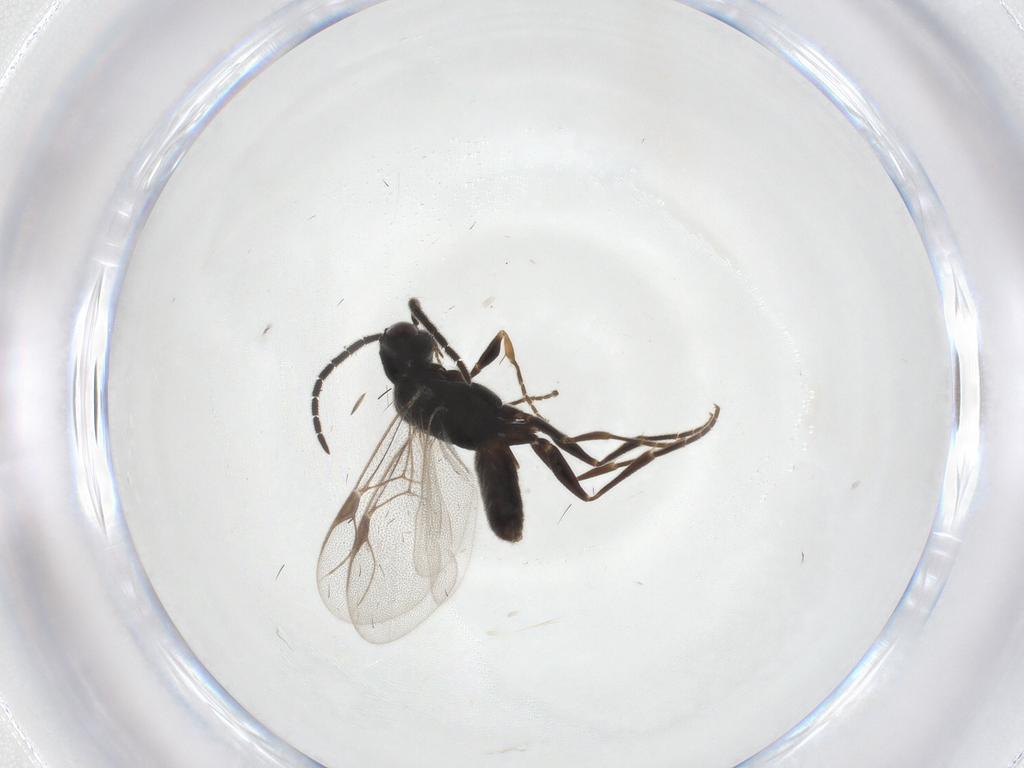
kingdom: Animalia
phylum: Arthropoda
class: Insecta
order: Hymenoptera
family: Dryinidae
